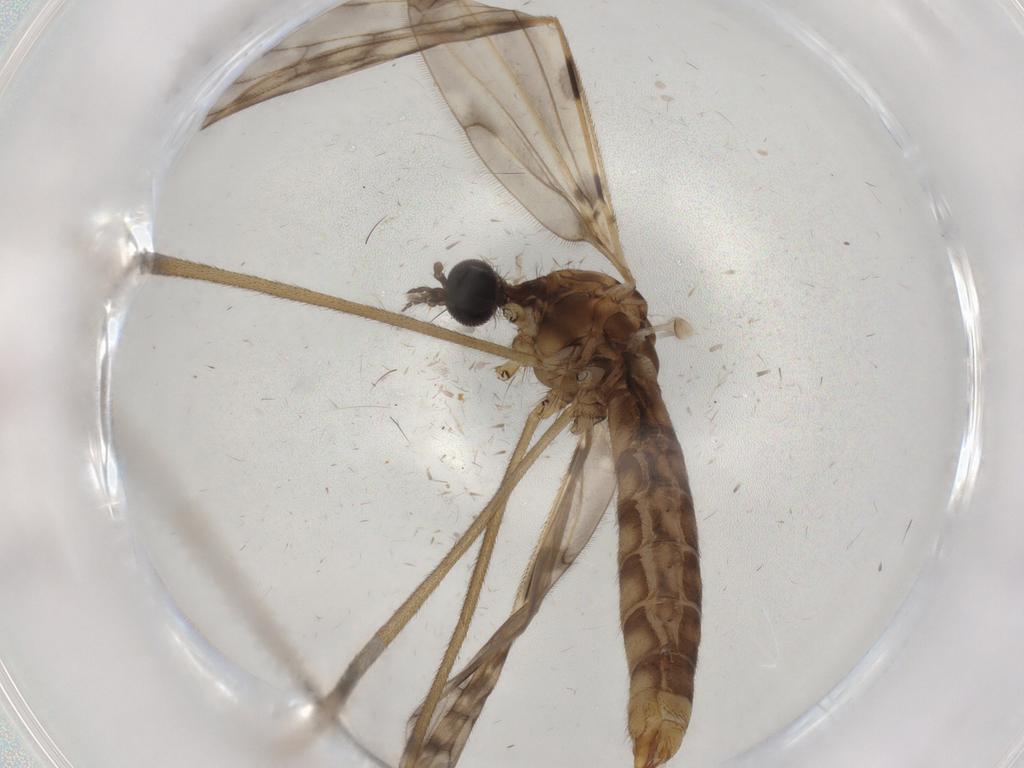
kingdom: Animalia
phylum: Arthropoda
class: Insecta
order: Diptera
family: Limoniidae
